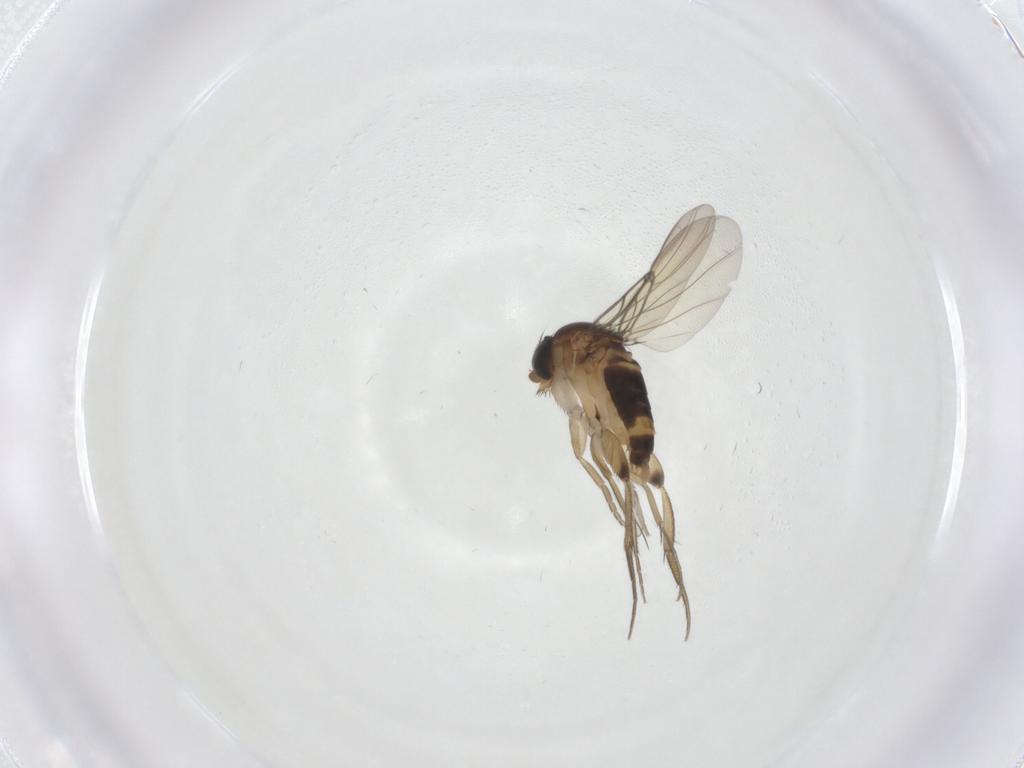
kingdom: Animalia
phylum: Arthropoda
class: Insecta
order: Diptera
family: Phoridae
